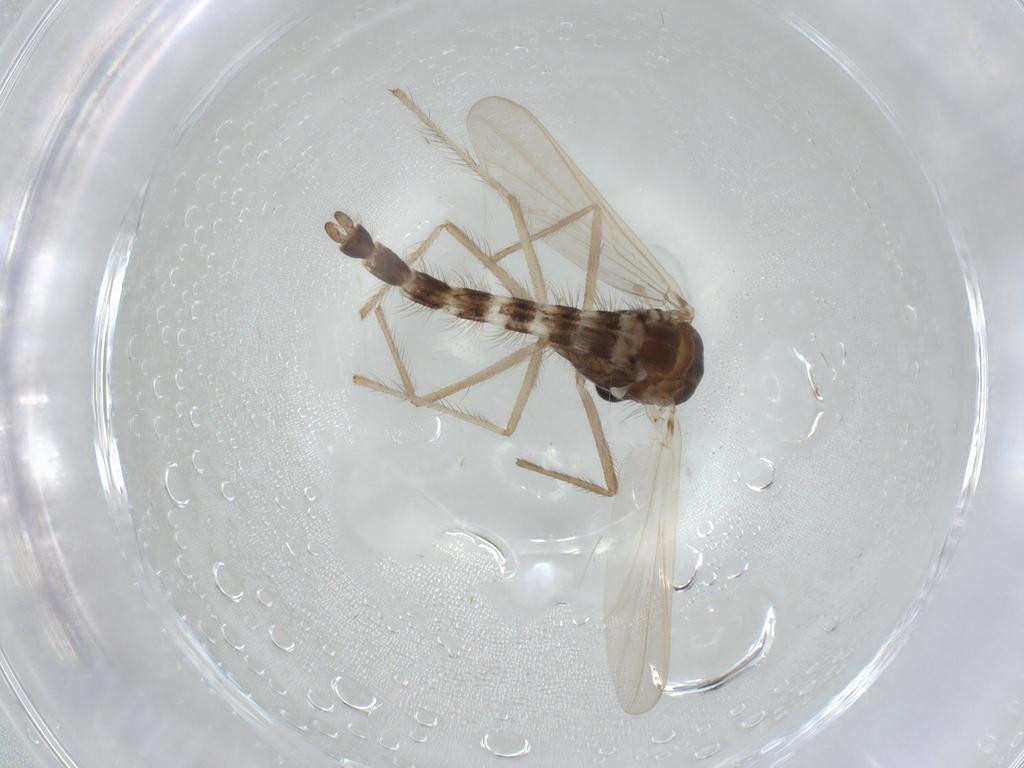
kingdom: Animalia
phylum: Arthropoda
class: Insecta
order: Diptera
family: Chironomidae
